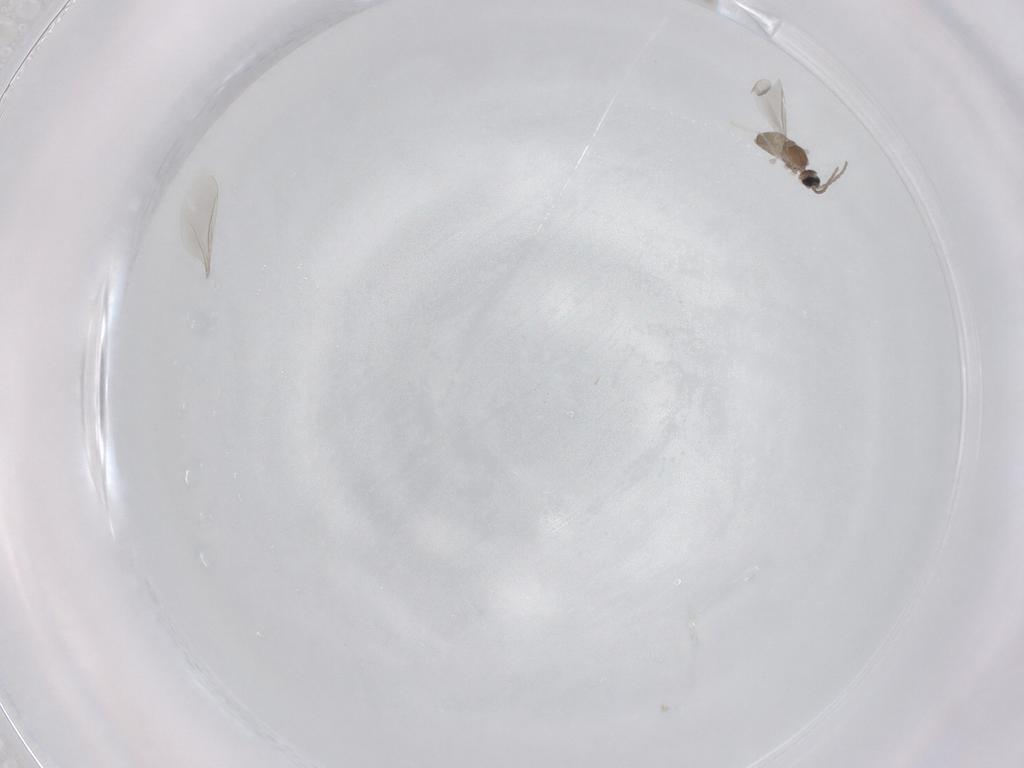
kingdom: Animalia
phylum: Arthropoda
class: Insecta
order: Diptera
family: Cecidomyiidae
